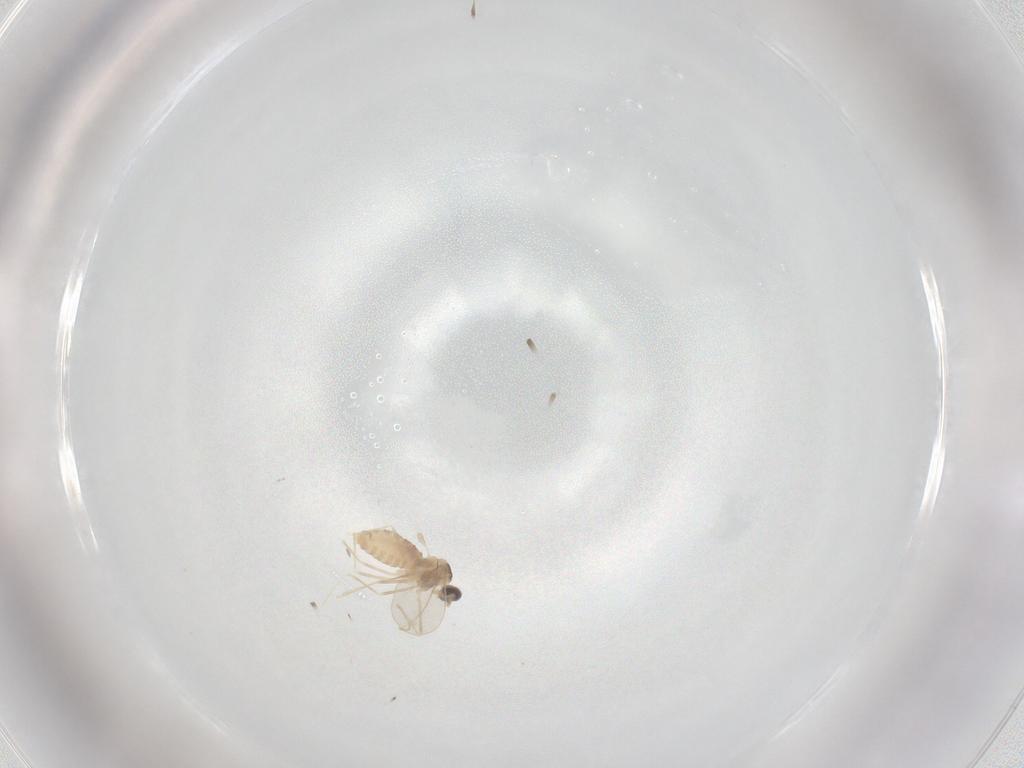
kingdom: Animalia
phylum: Arthropoda
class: Insecta
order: Diptera
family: Cecidomyiidae
